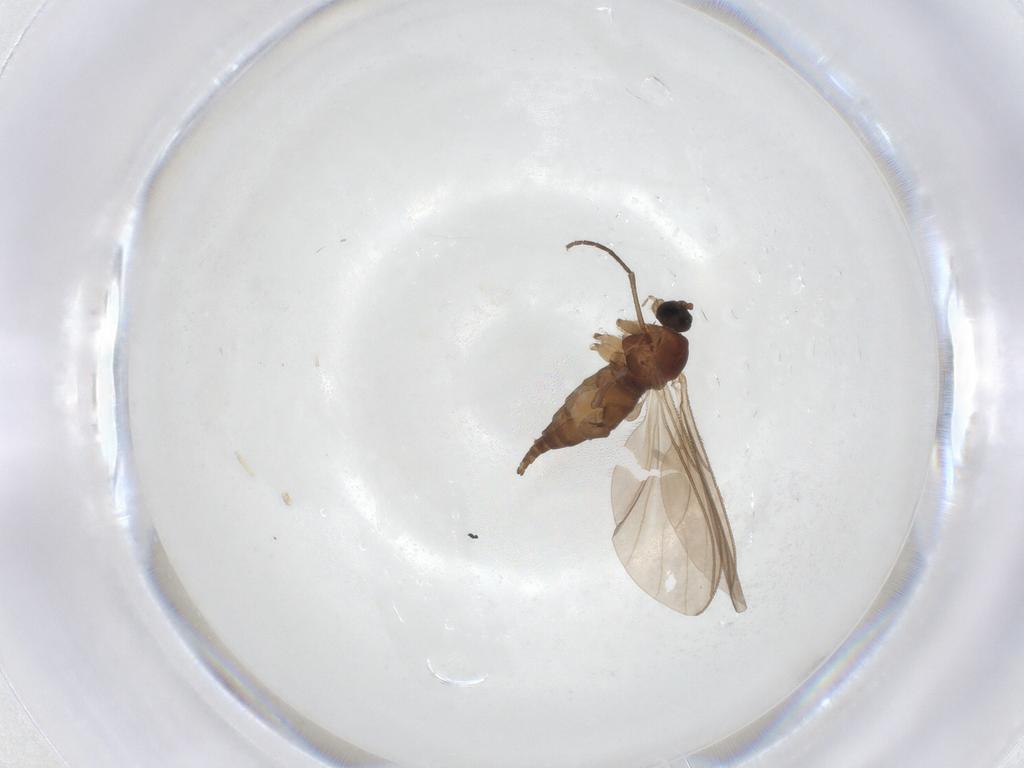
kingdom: Animalia
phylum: Arthropoda
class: Insecta
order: Diptera
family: Sciaridae
